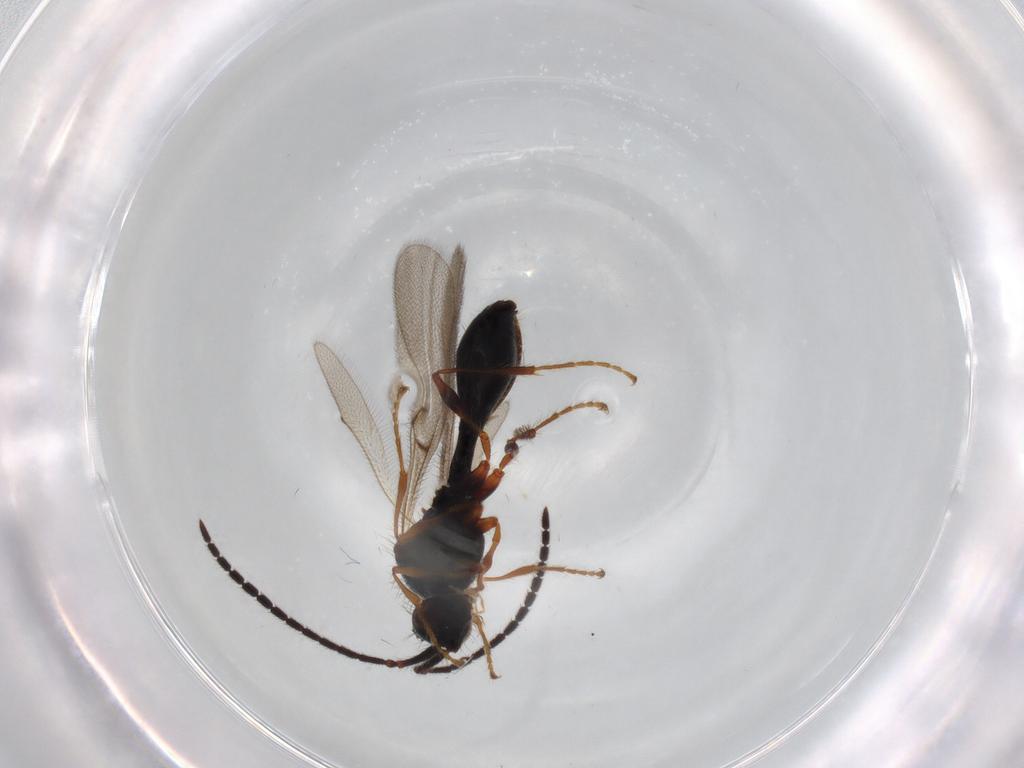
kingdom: Animalia
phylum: Arthropoda
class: Insecta
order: Hymenoptera
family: Diapriidae
